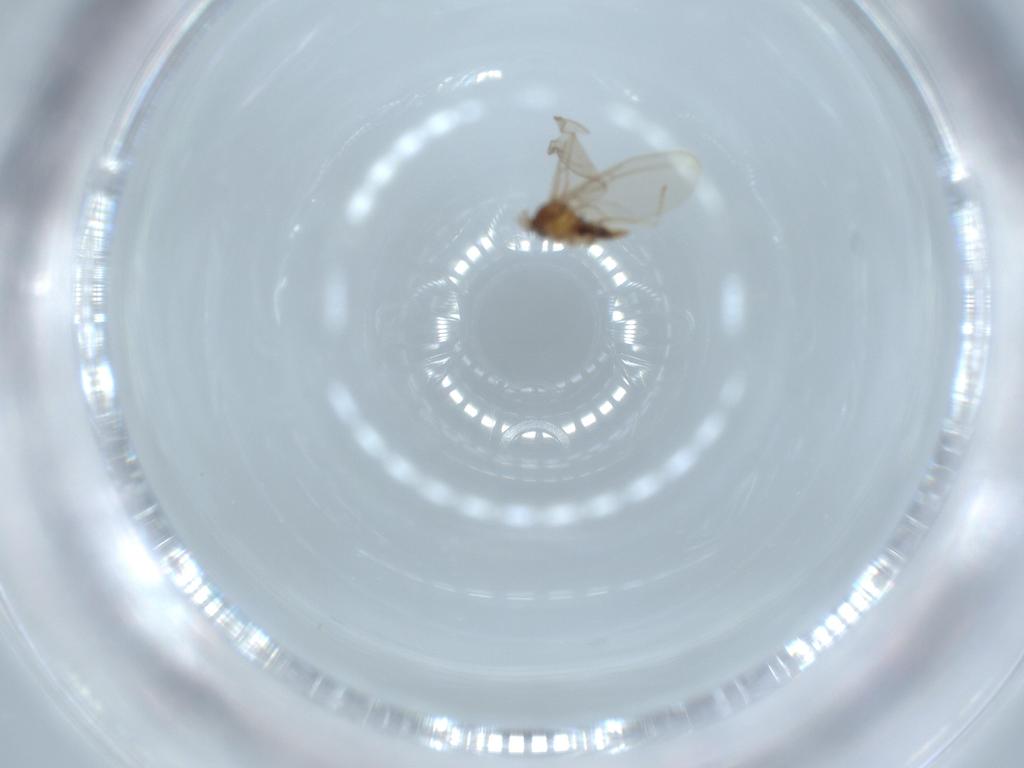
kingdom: Animalia
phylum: Arthropoda
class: Insecta
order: Diptera
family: Cecidomyiidae
